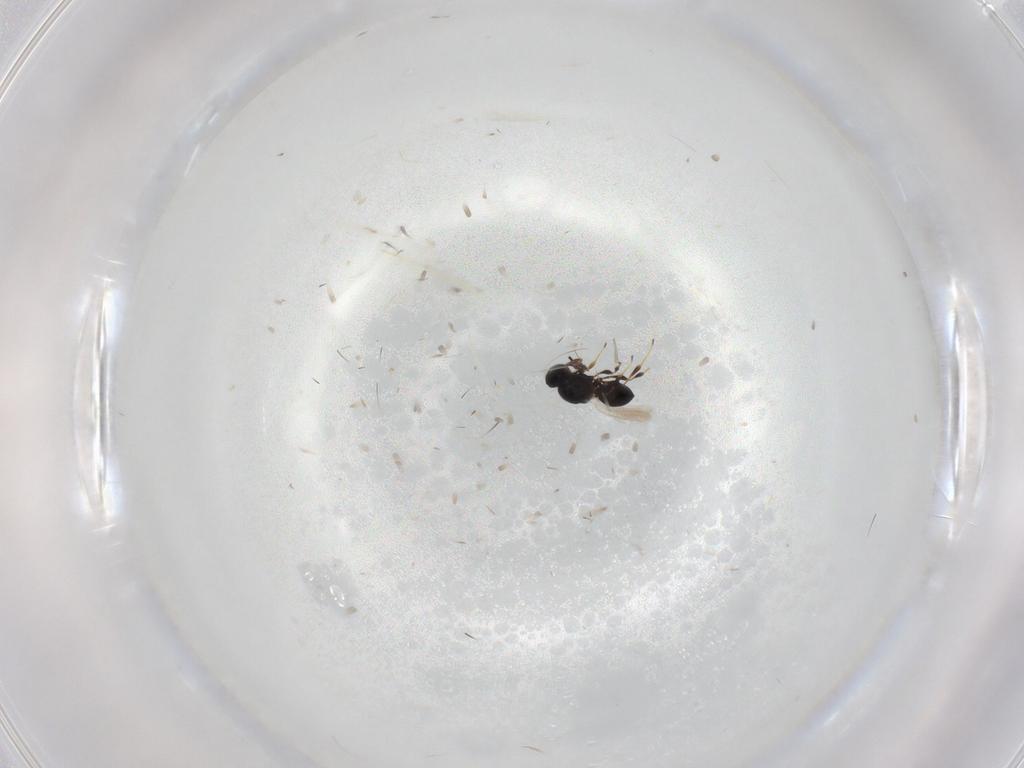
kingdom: Animalia
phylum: Arthropoda
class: Insecta
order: Hymenoptera
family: Platygastridae
